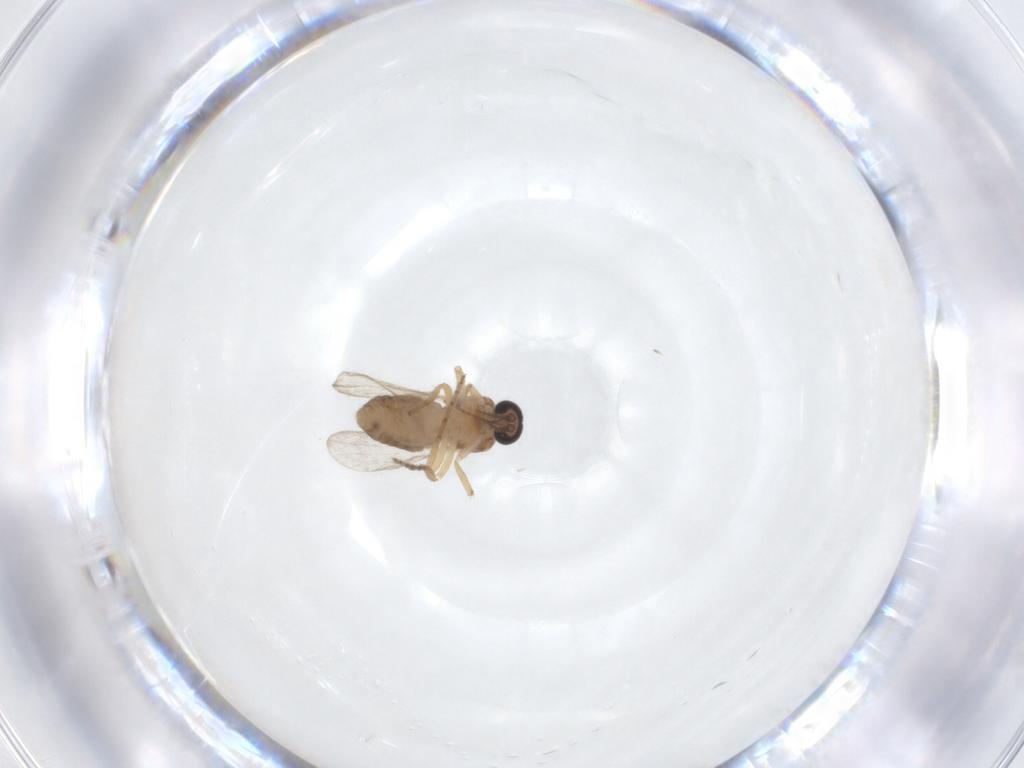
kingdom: Animalia
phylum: Arthropoda
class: Insecta
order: Diptera
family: Ceratopogonidae
